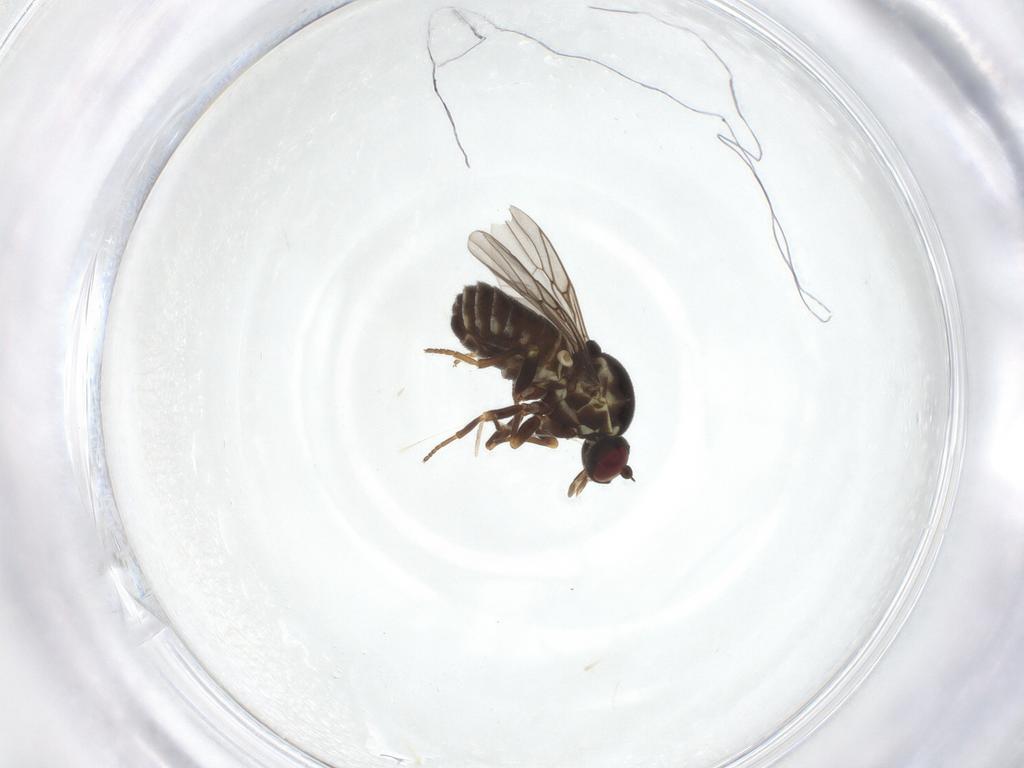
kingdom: Animalia
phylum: Arthropoda
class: Insecta
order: Diptera
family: Bombyliidae
